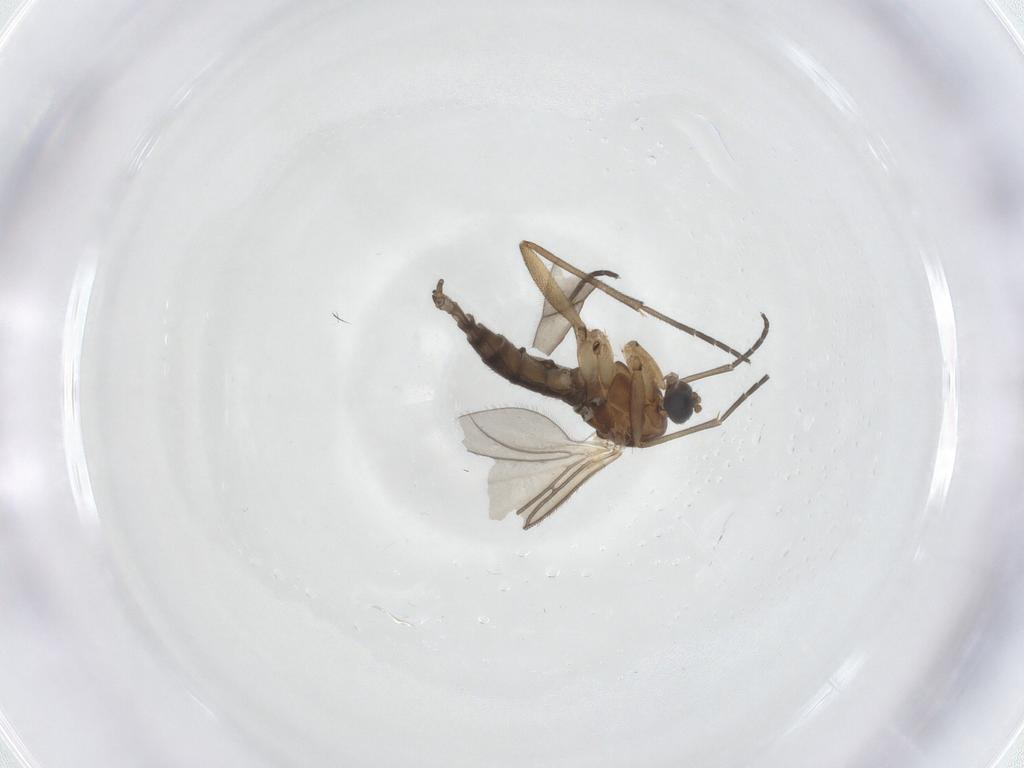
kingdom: Animalia
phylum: Arthropoda
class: Insecta
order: Diptera
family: Sciaridae
